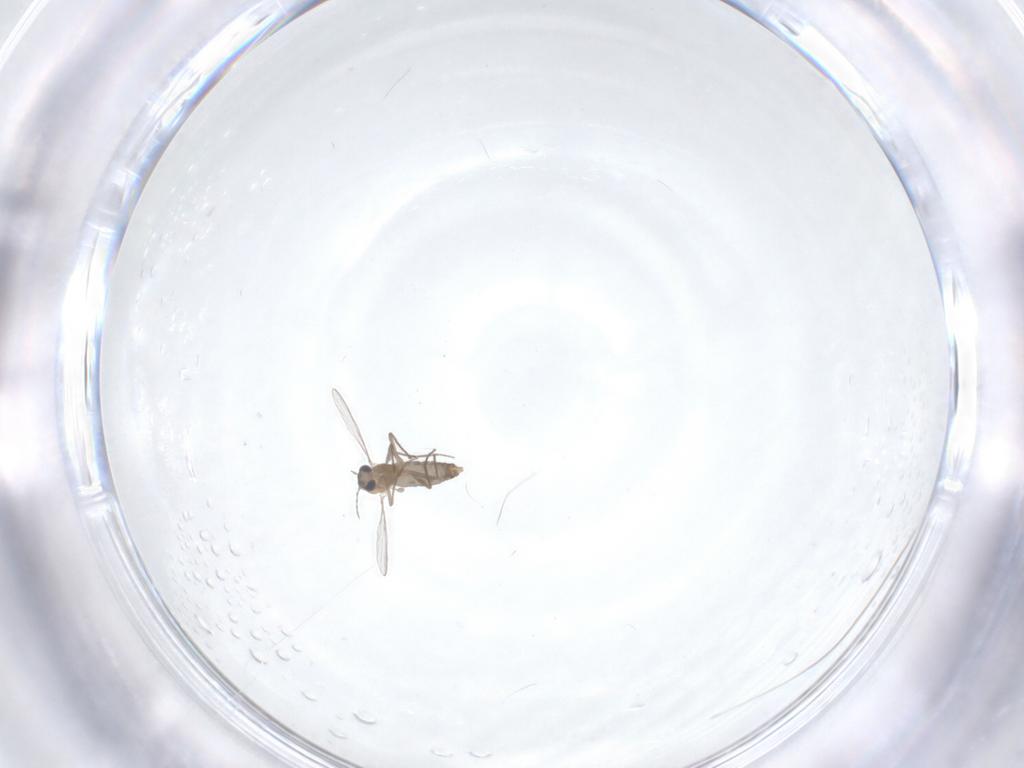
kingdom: Animalia
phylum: Arthropoda
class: Insecta
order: Diptera
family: Chironomidae
